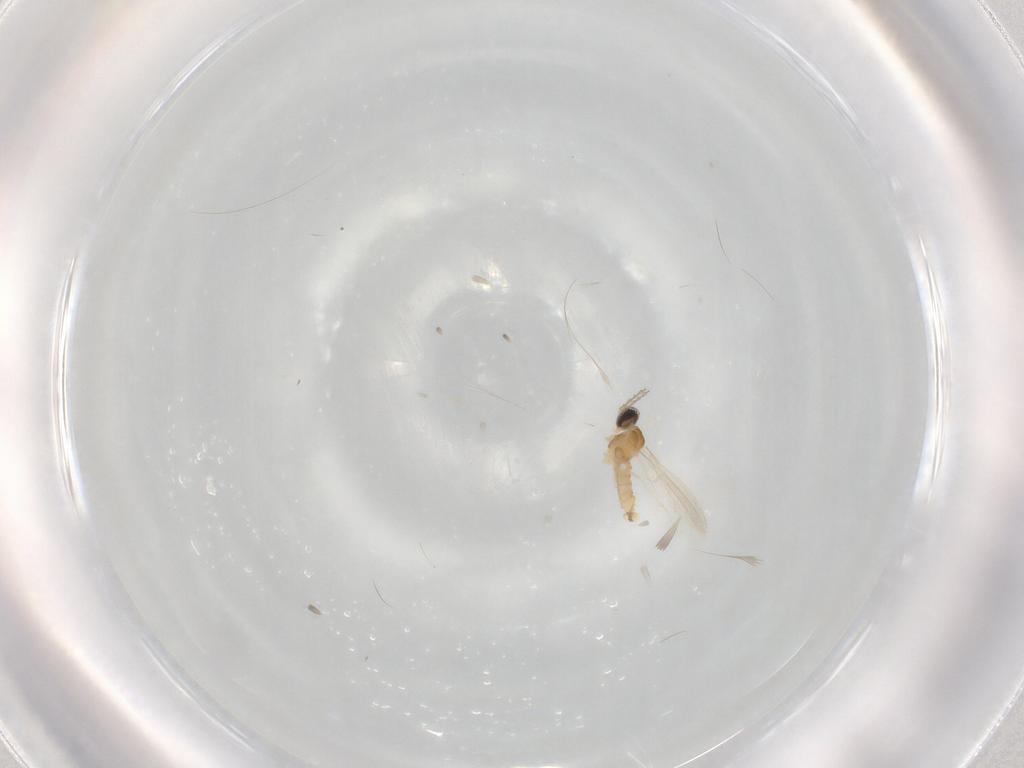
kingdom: Animalia
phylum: Arthropoda
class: Insecta
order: Diptera
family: Cecidomyiidae
